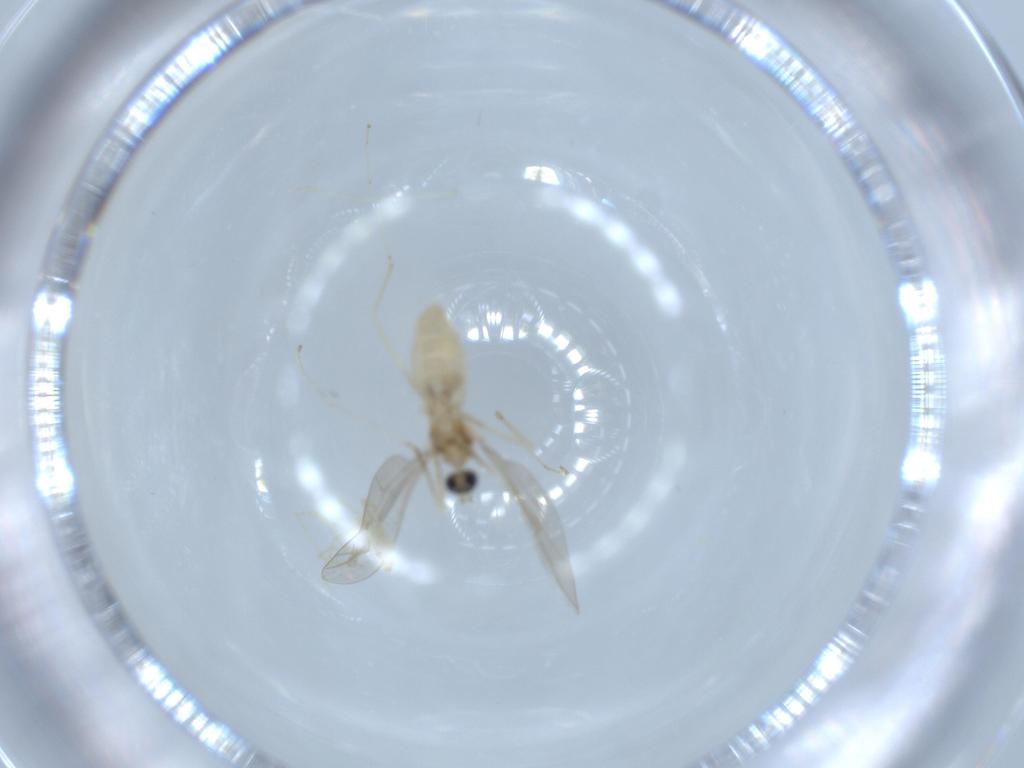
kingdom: Animalia
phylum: Arthropoda
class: Insecta
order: Diptera
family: Cecidomyiidae
